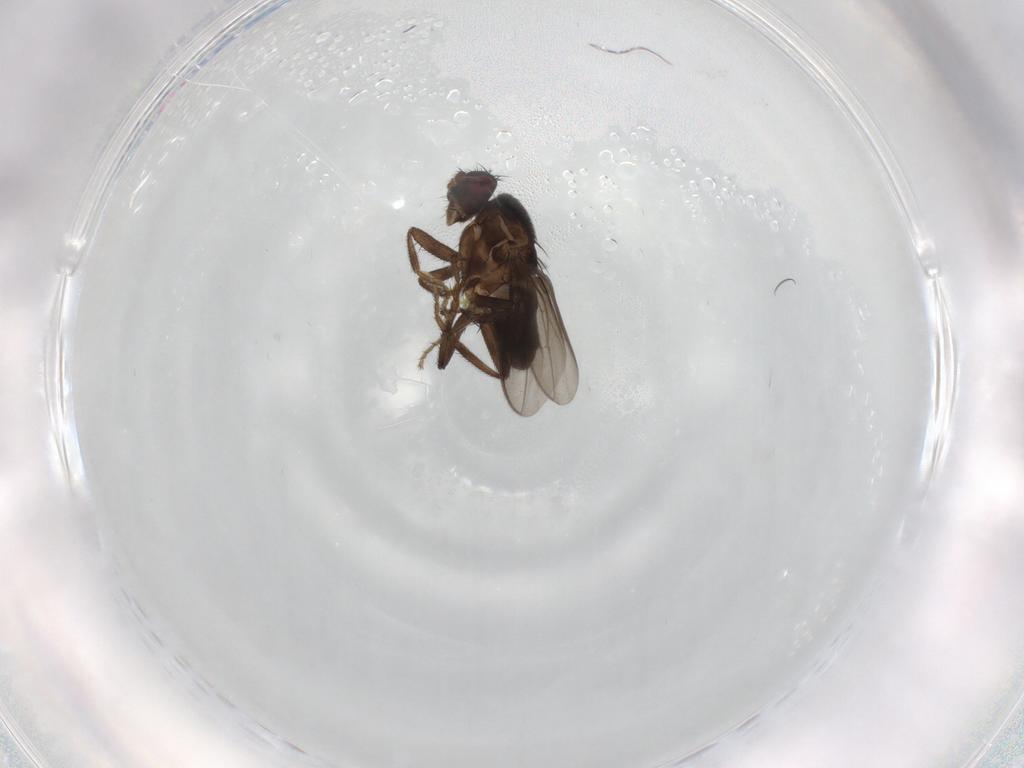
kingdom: Animalia
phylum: Arthropoda
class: Insecta
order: Diptera
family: Sphaeroceridae
